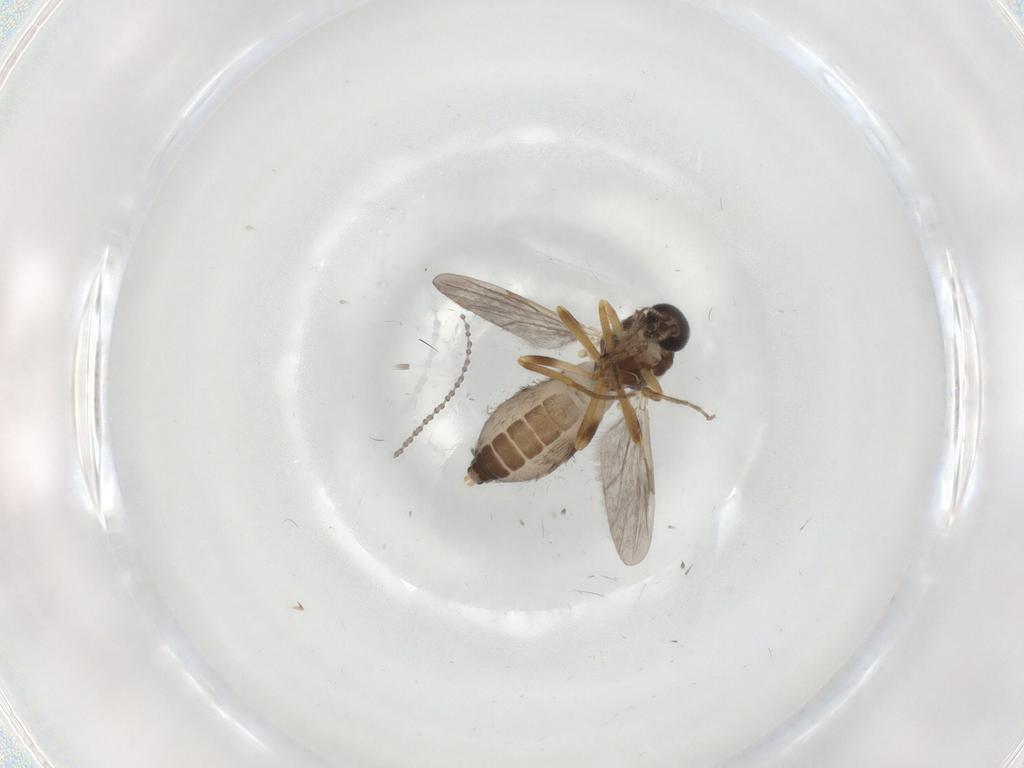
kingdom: Animalia
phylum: Arthropoda
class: Insecta
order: Diptera
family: Ceratopogonidae
